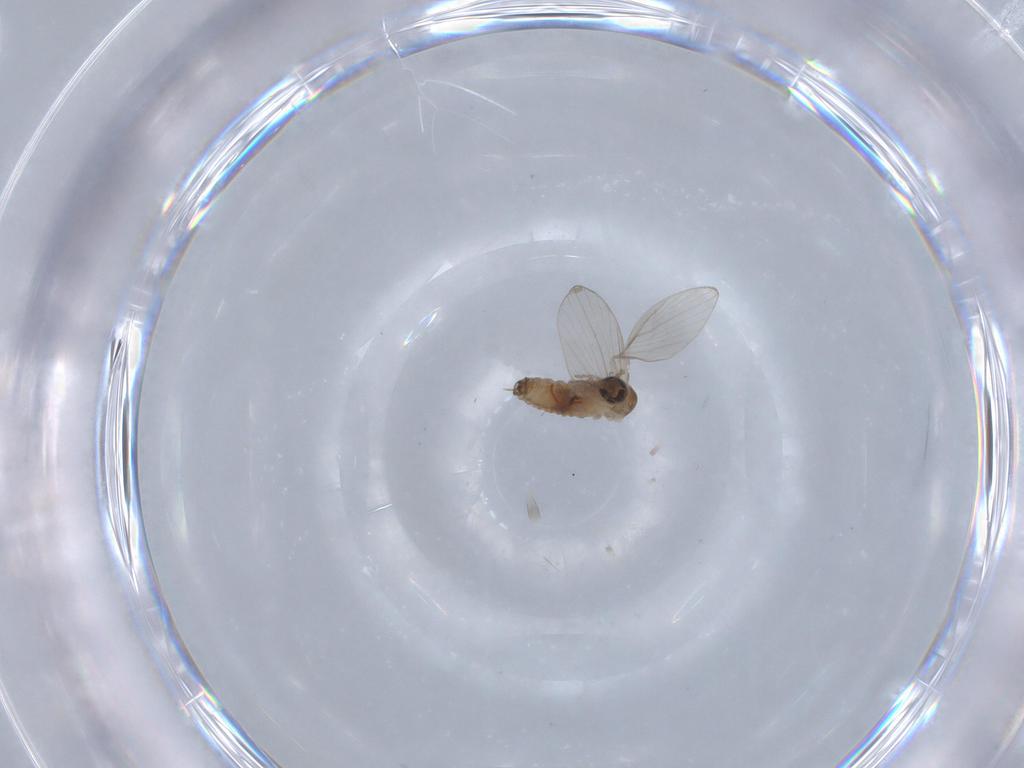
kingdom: Animalia
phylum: Arthropoda
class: Insecta
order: Diptera
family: Psychodidae
